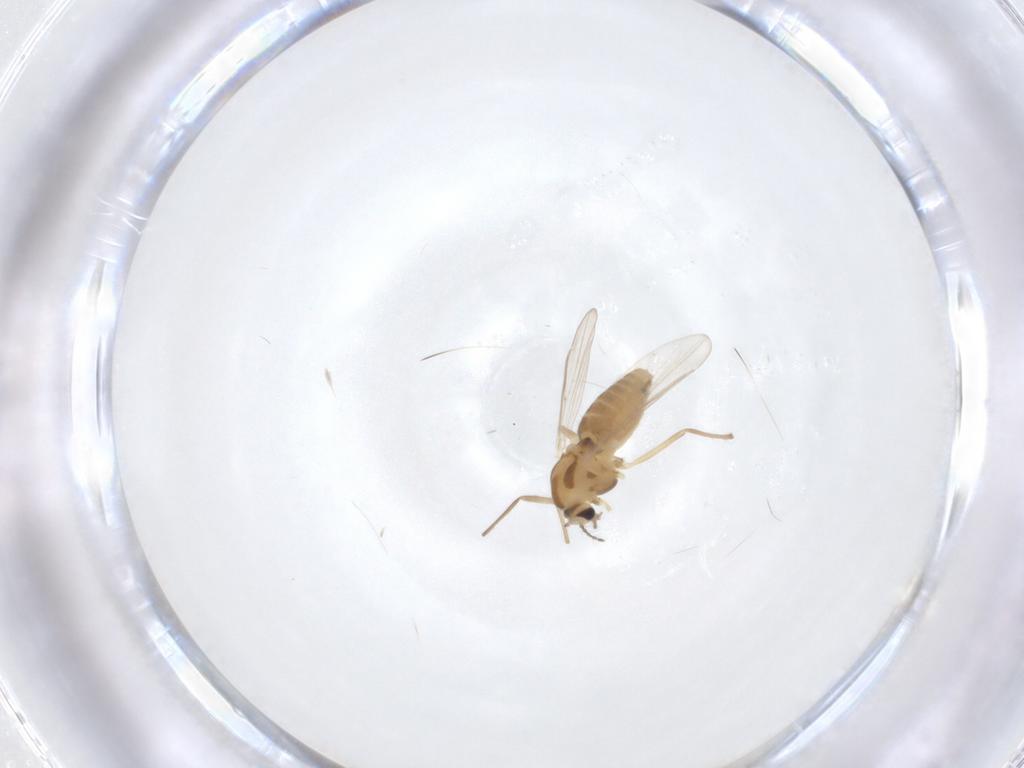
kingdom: Animalia
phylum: Arthropoda
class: Insecta
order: Diptera
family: Chironomidae
